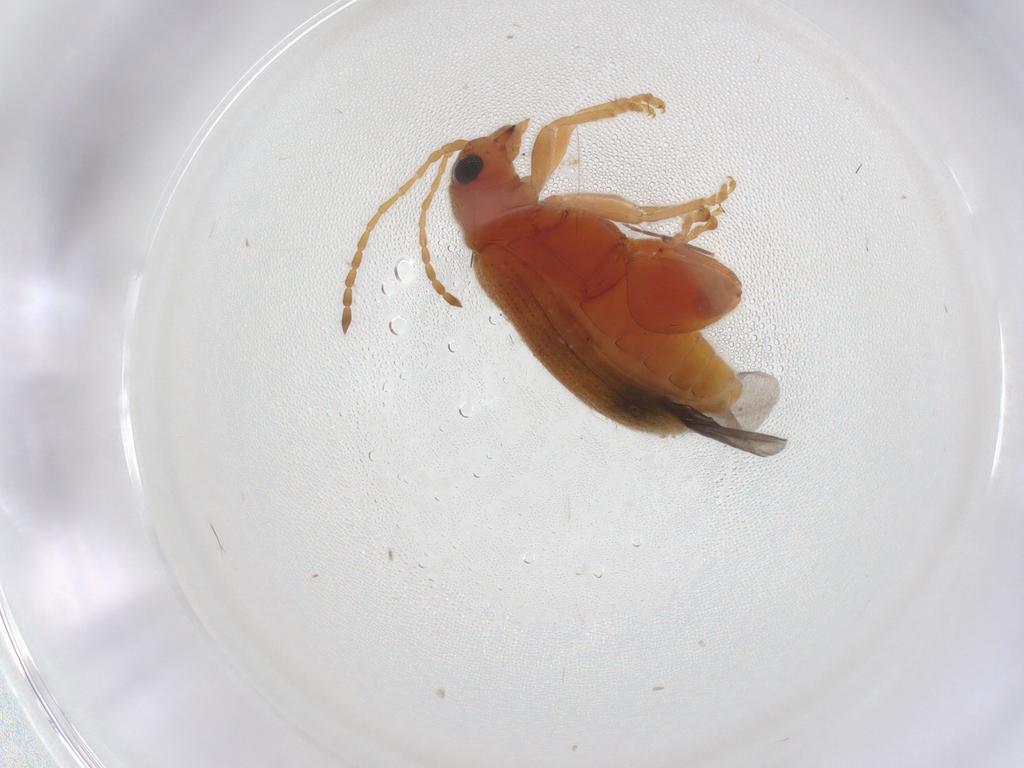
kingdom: Animalia
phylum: Arthropoda
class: Insecta
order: Coleoptera
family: Chrysomelidae
